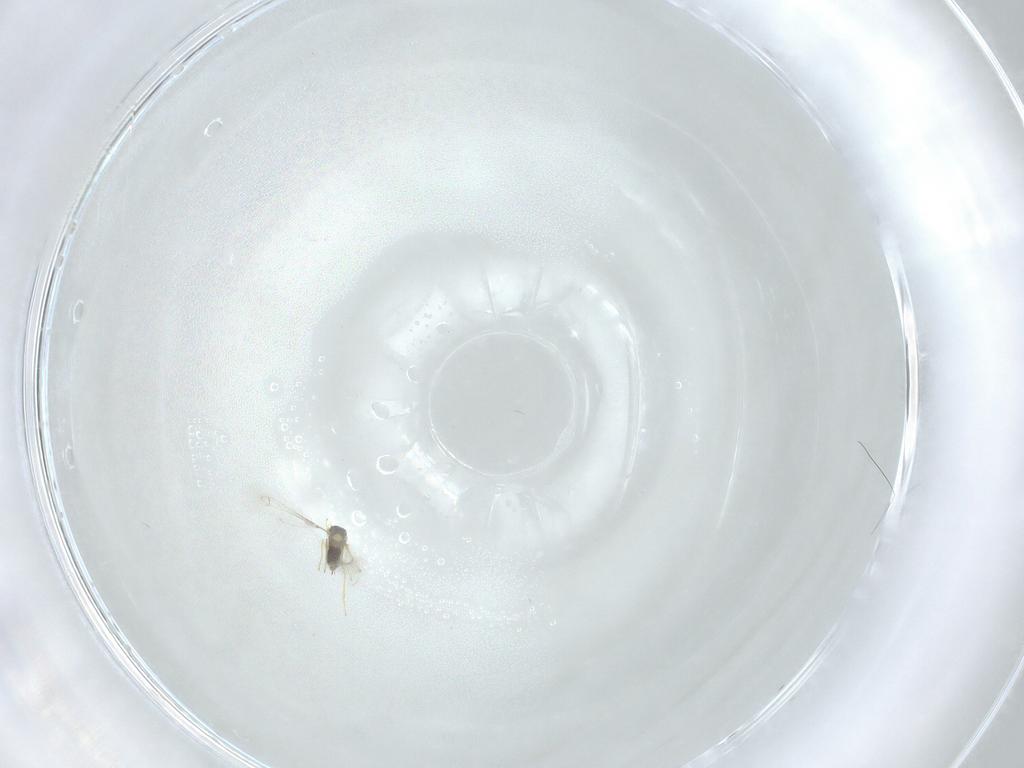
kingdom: Animalia
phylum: Arthropoda
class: Insecta
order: Hymenoptera
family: Mymaridae
